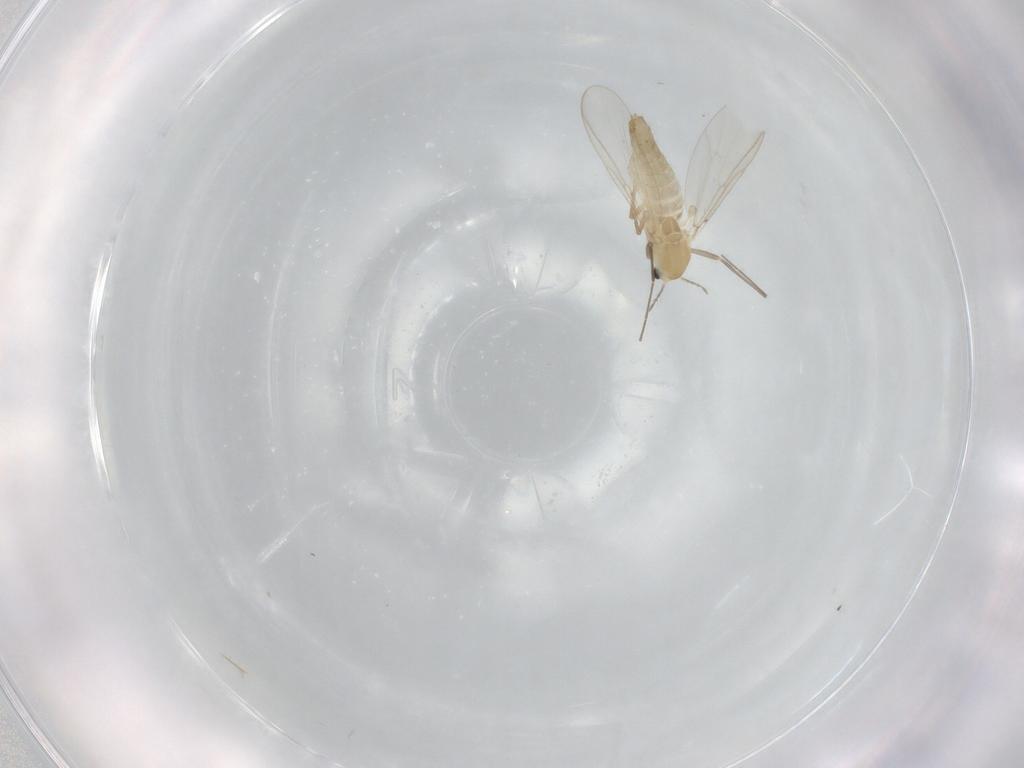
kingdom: Animalia
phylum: Arthropoda
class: Insecta
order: Diptera
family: Chironomidae
